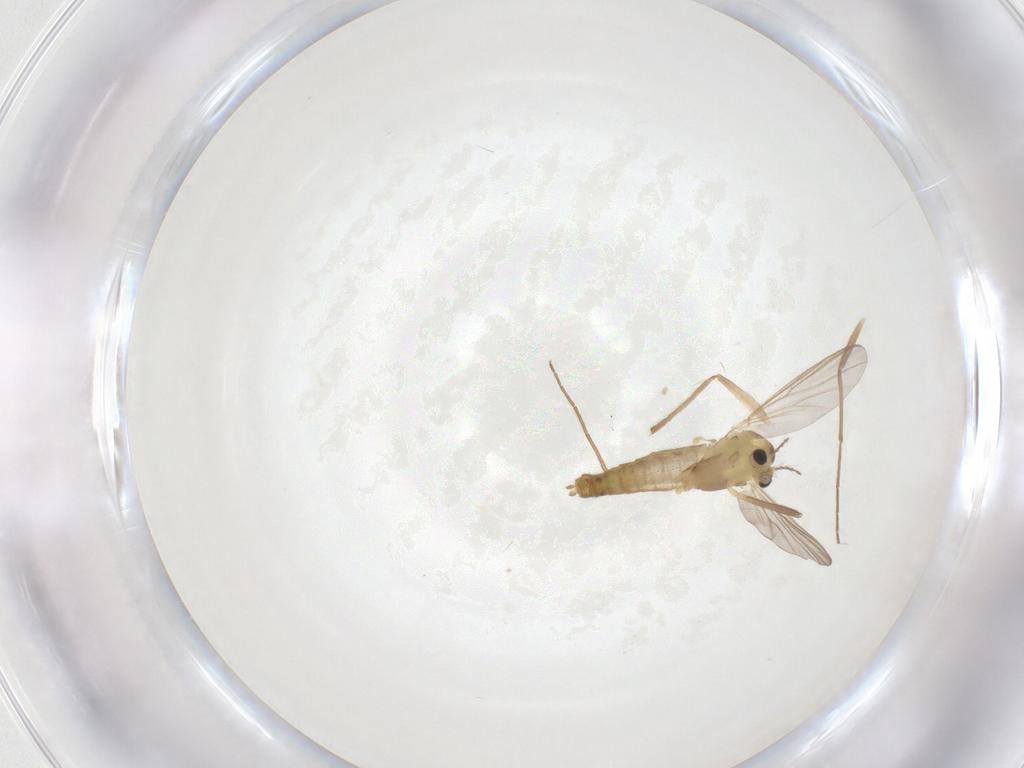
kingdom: Animalia
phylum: Arthropoda
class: Insecta
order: Diptera
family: Chironomidae
